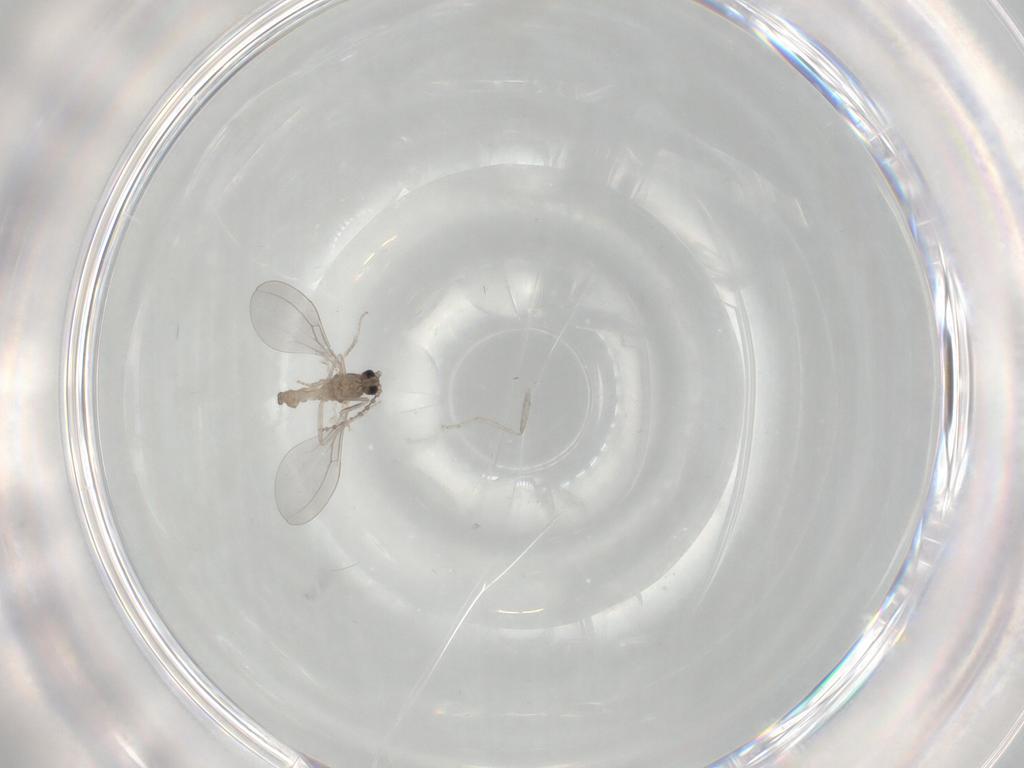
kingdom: Animalia
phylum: Arthropoda
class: Insecta
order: Diptera
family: Cecidomyiidae
